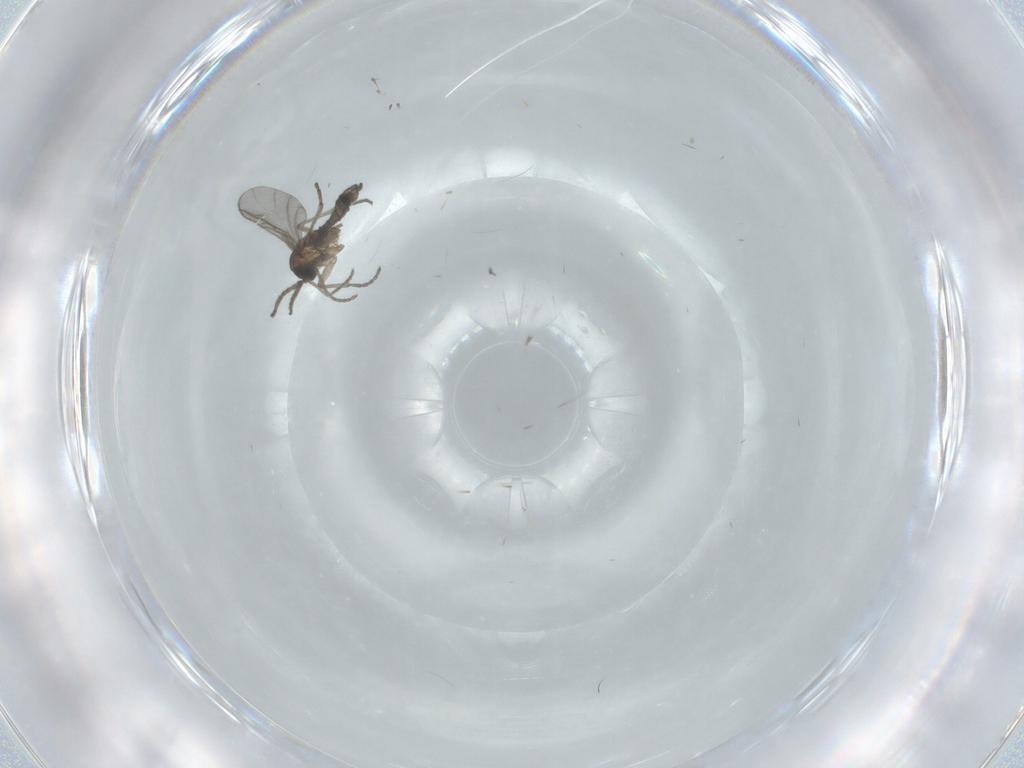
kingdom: Animalia
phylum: Arthropoda
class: Insecta
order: Diptera
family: Sciaridae
